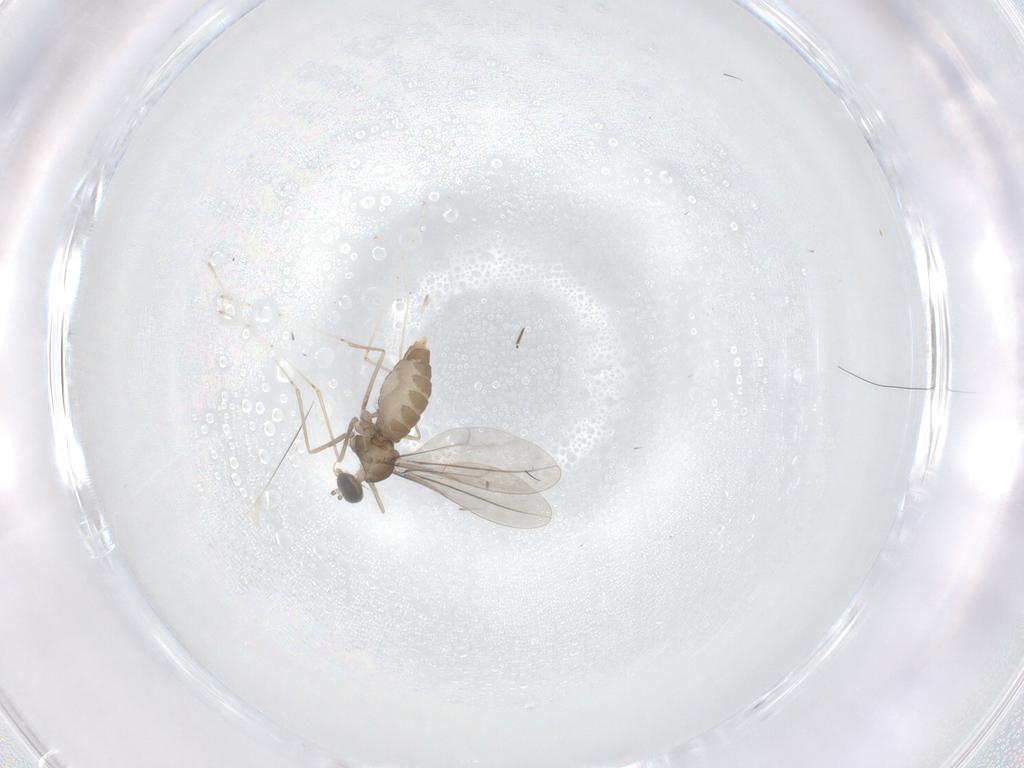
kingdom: Animalia
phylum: Arthropoda
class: Insecta
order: Diptera
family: Cecidomyiidae
